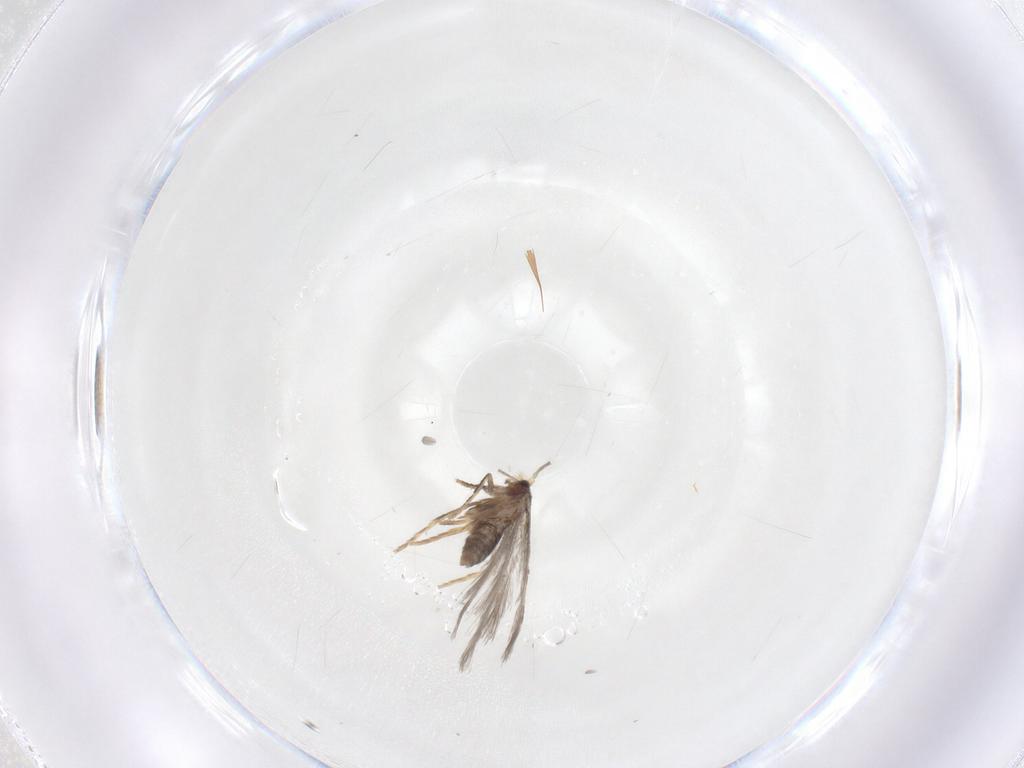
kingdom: Animalia
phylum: Arthropoda
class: Insecta
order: Lepidoptera
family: Nepticulidae
